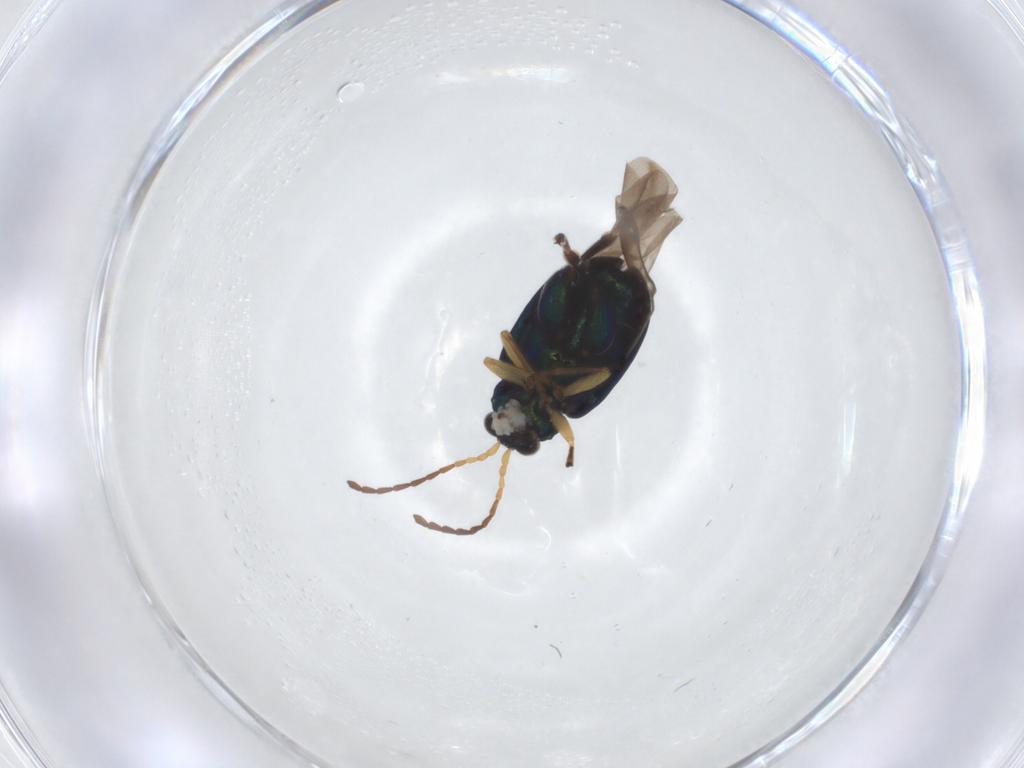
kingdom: Animalia
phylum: Arthropoda
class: Insecta
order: Coleoptera
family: Chrysomelidae
